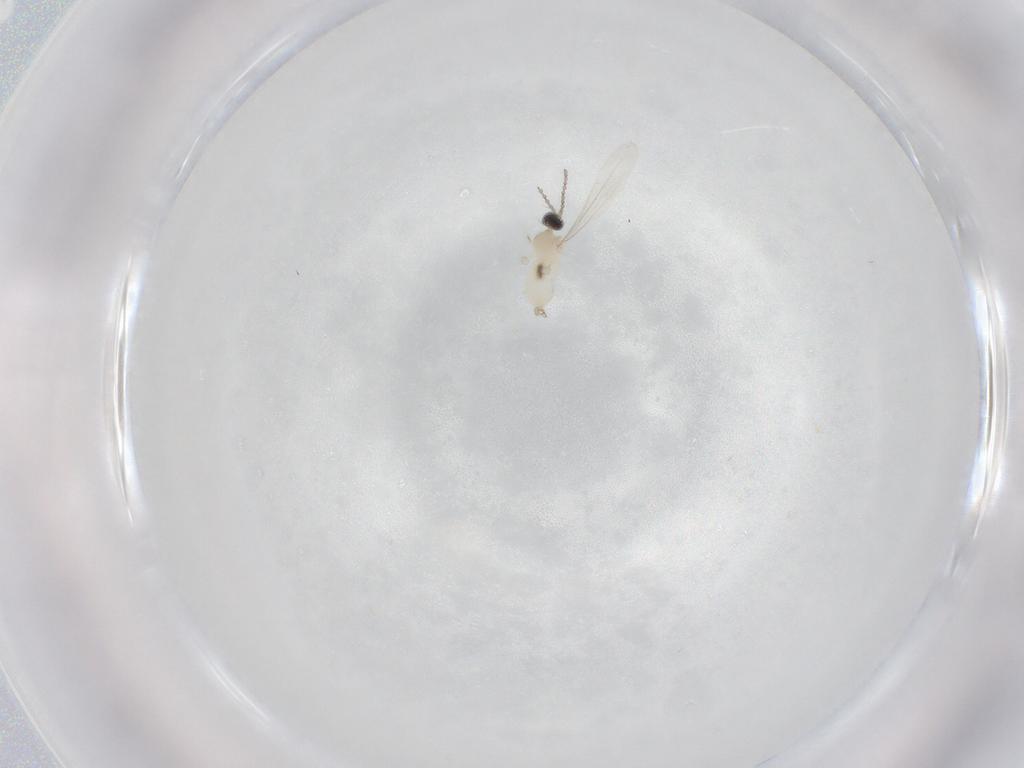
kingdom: Animalia
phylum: Arthropoda
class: Insecta
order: Diptera
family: Cecidomyiidae
